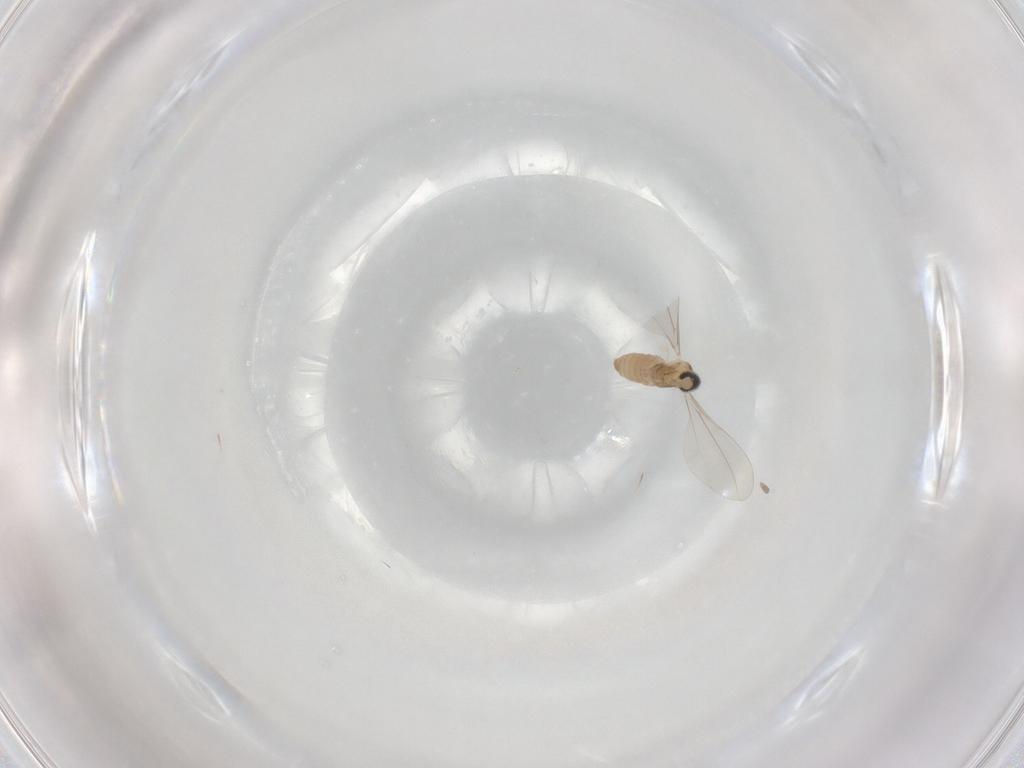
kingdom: Animalia
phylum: Arthropoda
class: Insecta
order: Diptera
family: Cecidomyiidae
